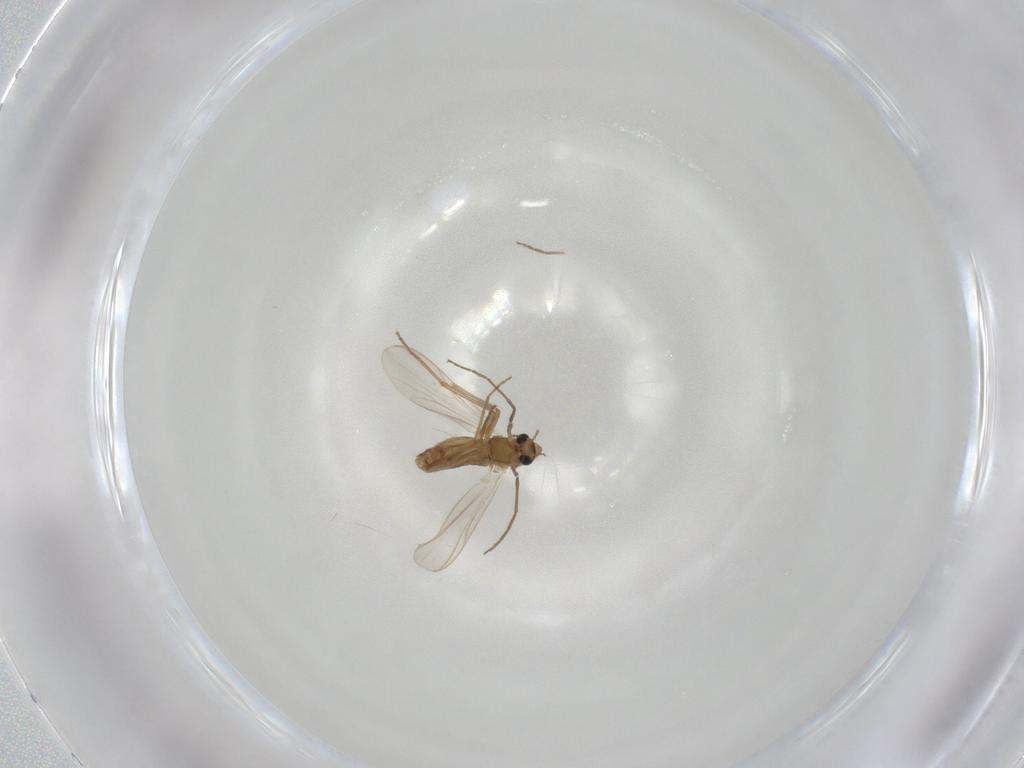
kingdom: Animalia
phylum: Arthropoda
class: Insecta
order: Diptera
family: Chironomidae
